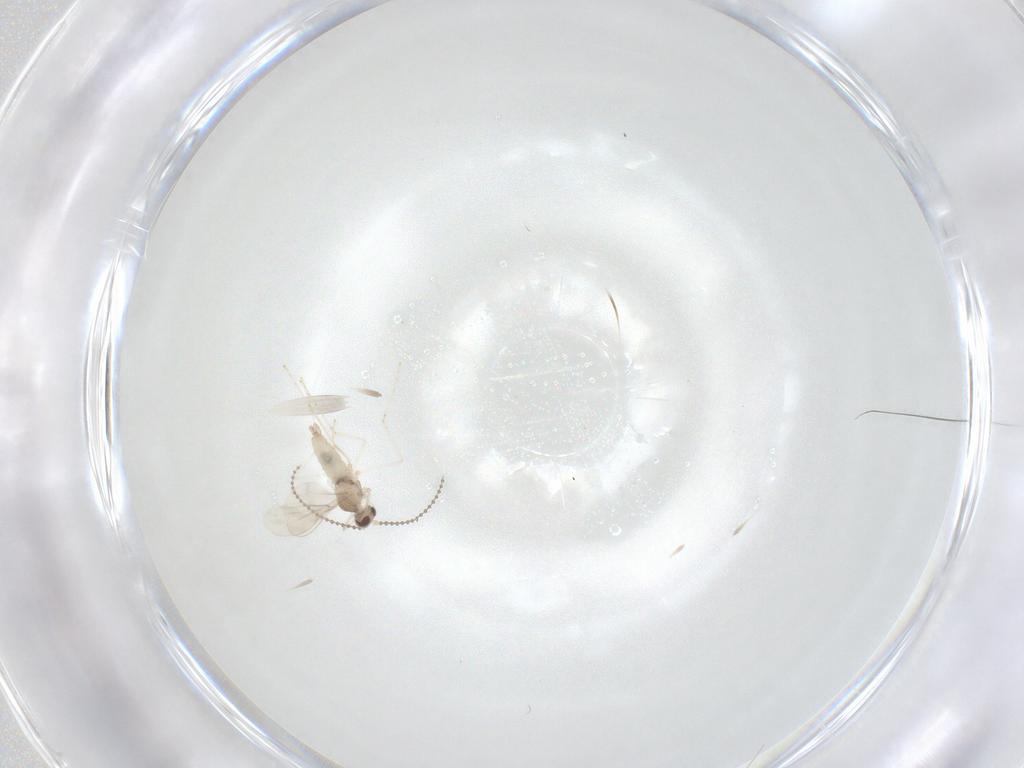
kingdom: Animalia
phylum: Arthropoda
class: Insecta
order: Diptera
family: Cecidomyiidae
